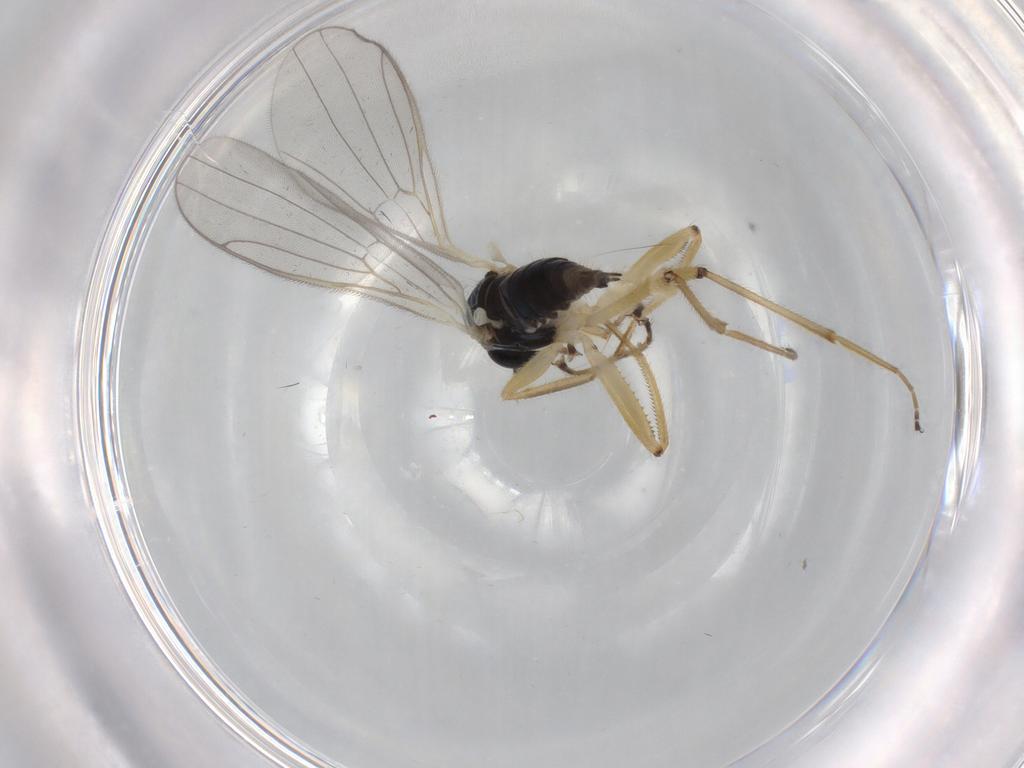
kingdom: Animalia
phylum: Arthropoda
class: Insecta
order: Diptera
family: Hybotidae
